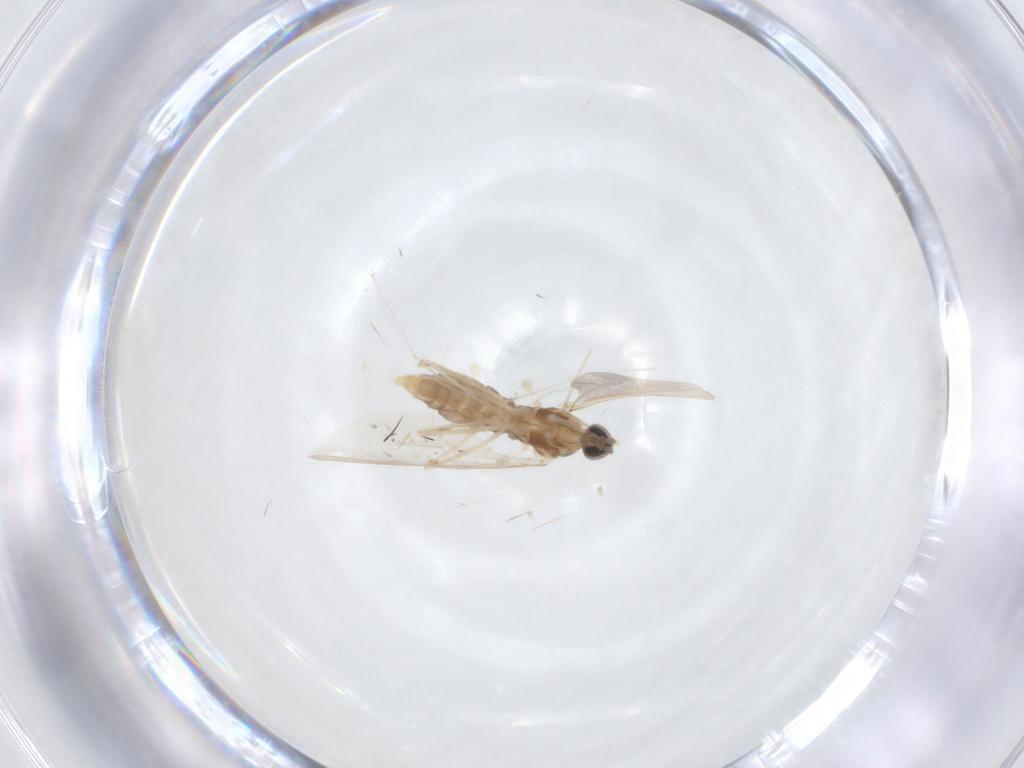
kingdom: Animalia
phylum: Arthropoda
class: Insecta
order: Diptera
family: Cecidomyiidae
